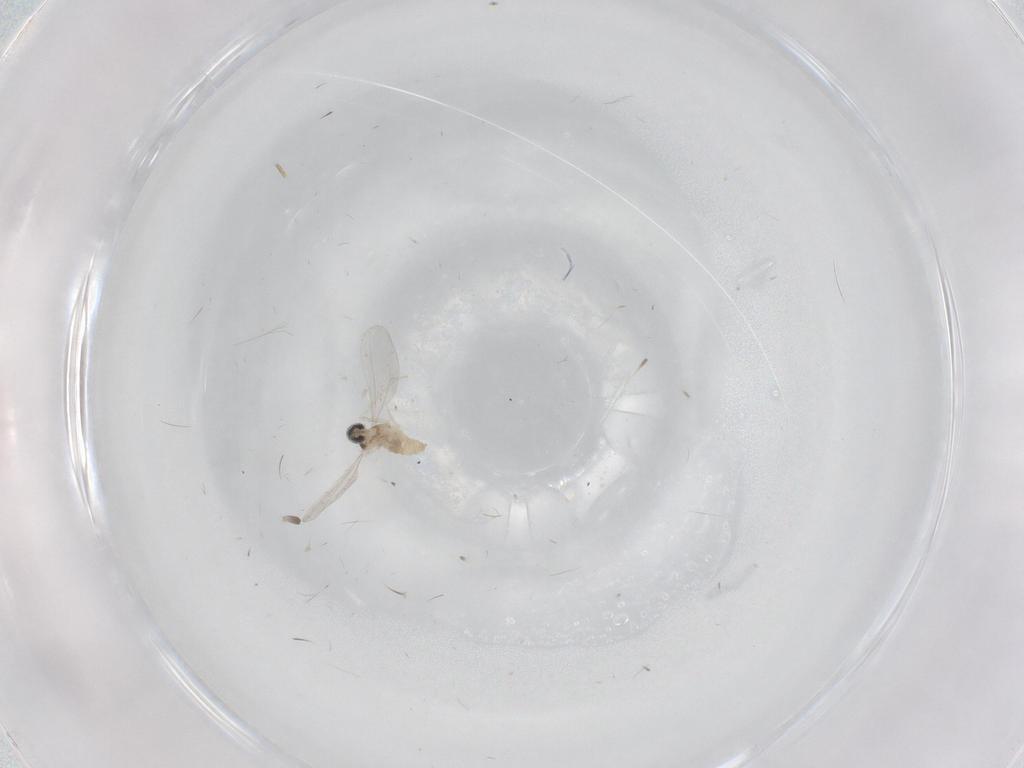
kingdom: Animalia
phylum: Arthropoda
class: Insecta
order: Diptera
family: Cecidomyiidae
